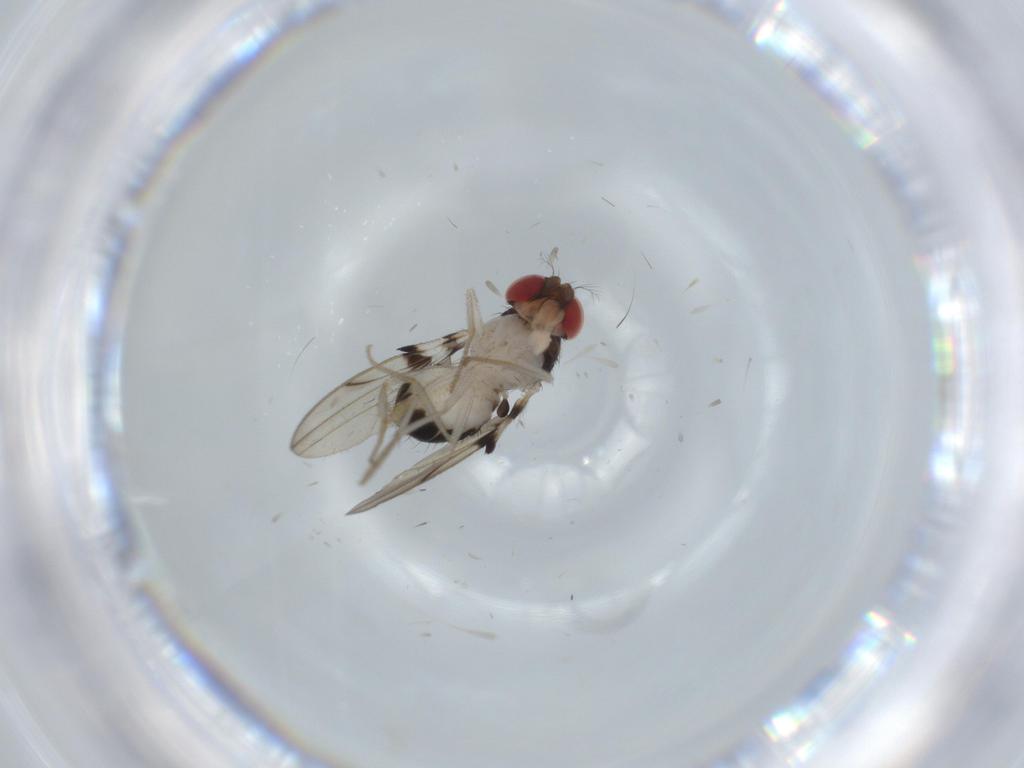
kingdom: Animalia
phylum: Arthropoda
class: Insecta
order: Diptera
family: Drosophilidae
